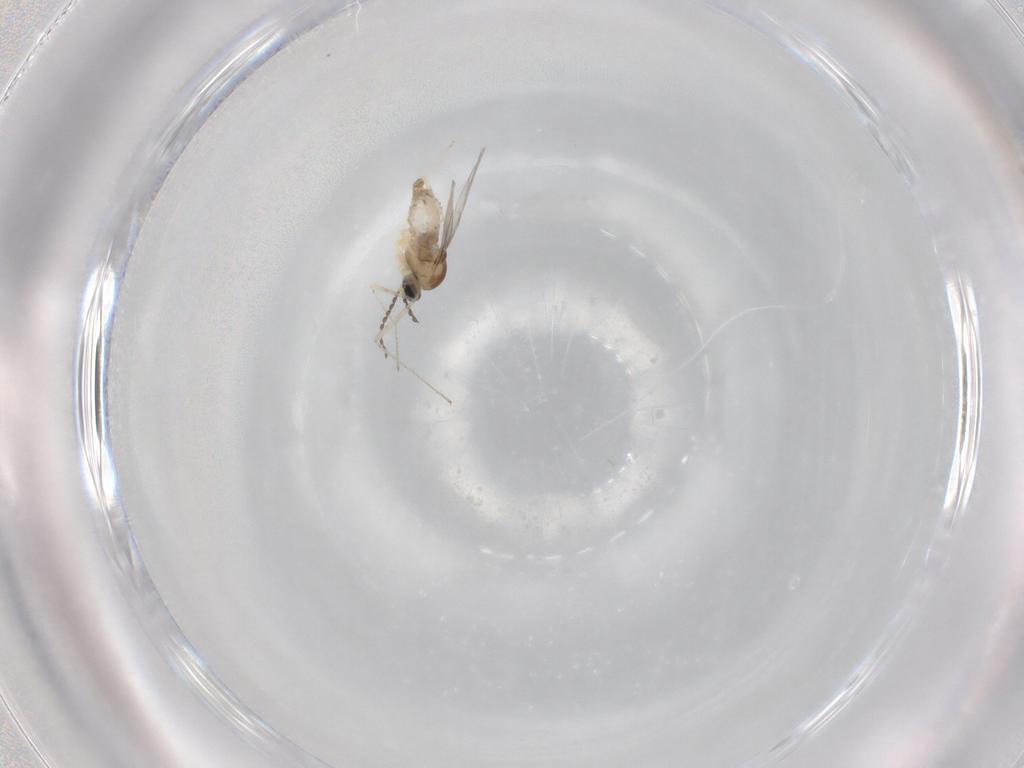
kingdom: Animalia
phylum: Arthropoda
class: Insecta
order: Diptera
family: Cecidomyiidae
